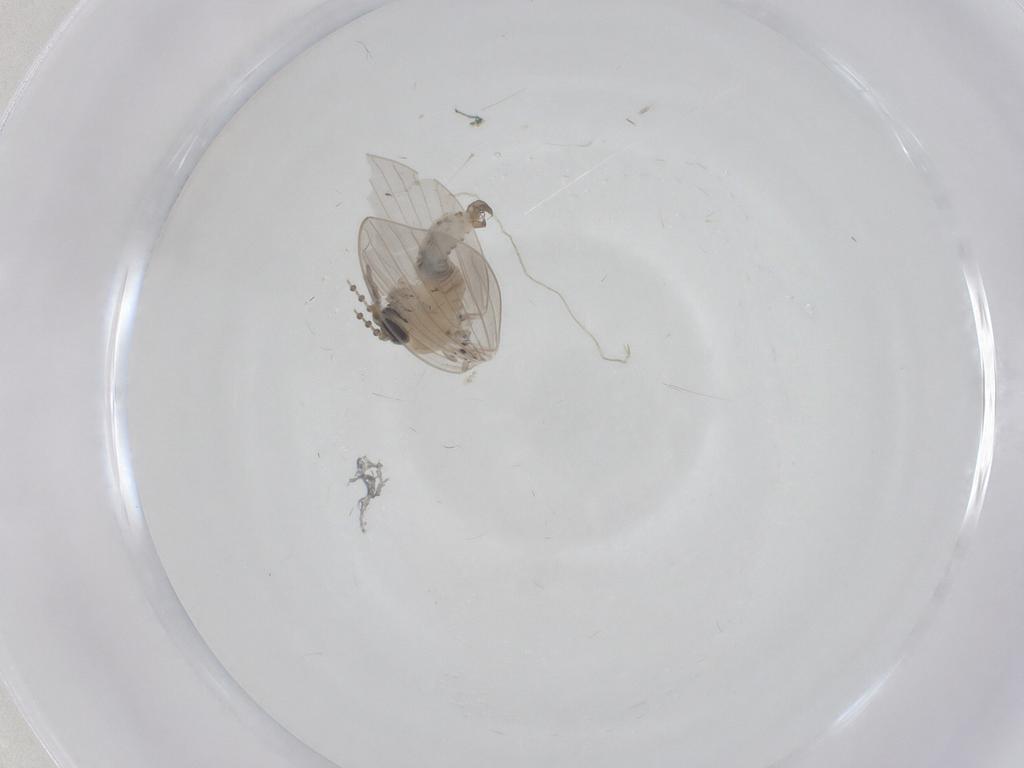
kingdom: Animalia
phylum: Arthropoda
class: Insecta
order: Diptera
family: Psychodidae
